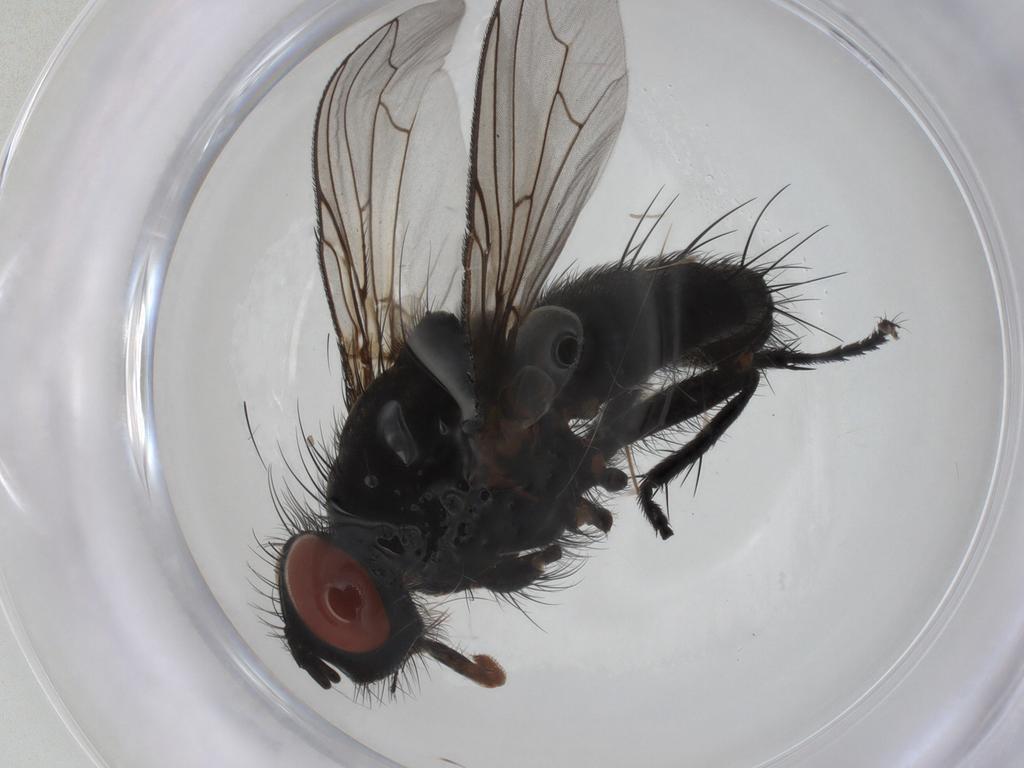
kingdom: Animalia
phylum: Arthropoda
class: Insecta
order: Diptera
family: Sarcophagidae
